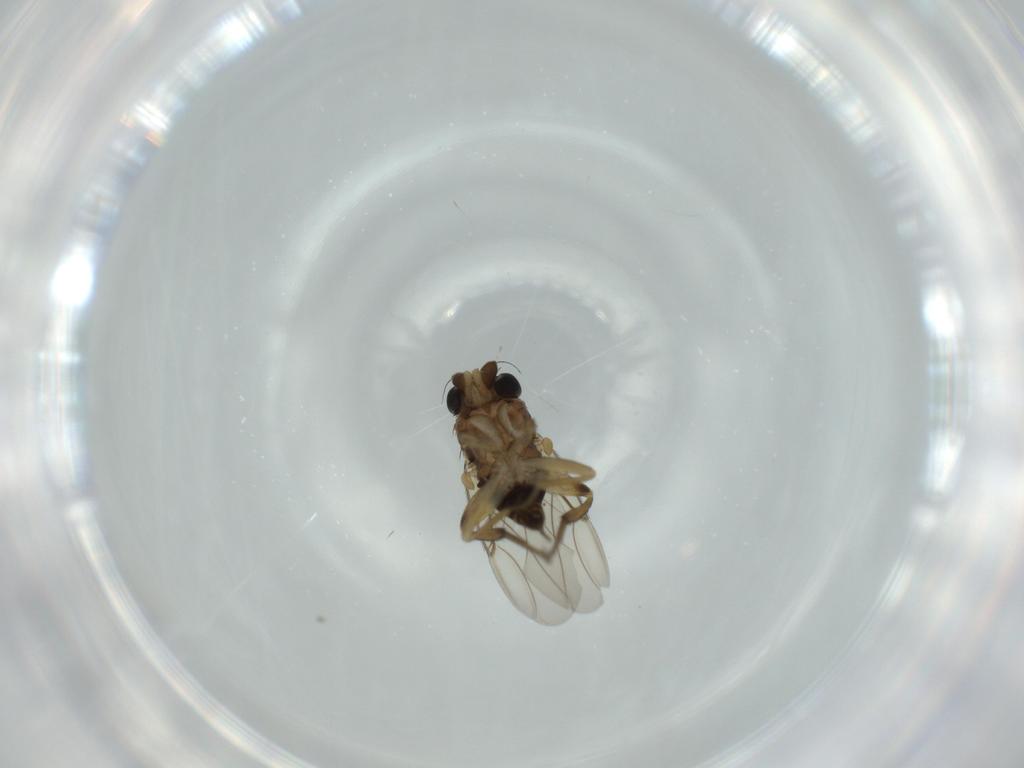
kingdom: Animalia
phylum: Arthropoda
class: Insecta
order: Diptera
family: Phoridae
